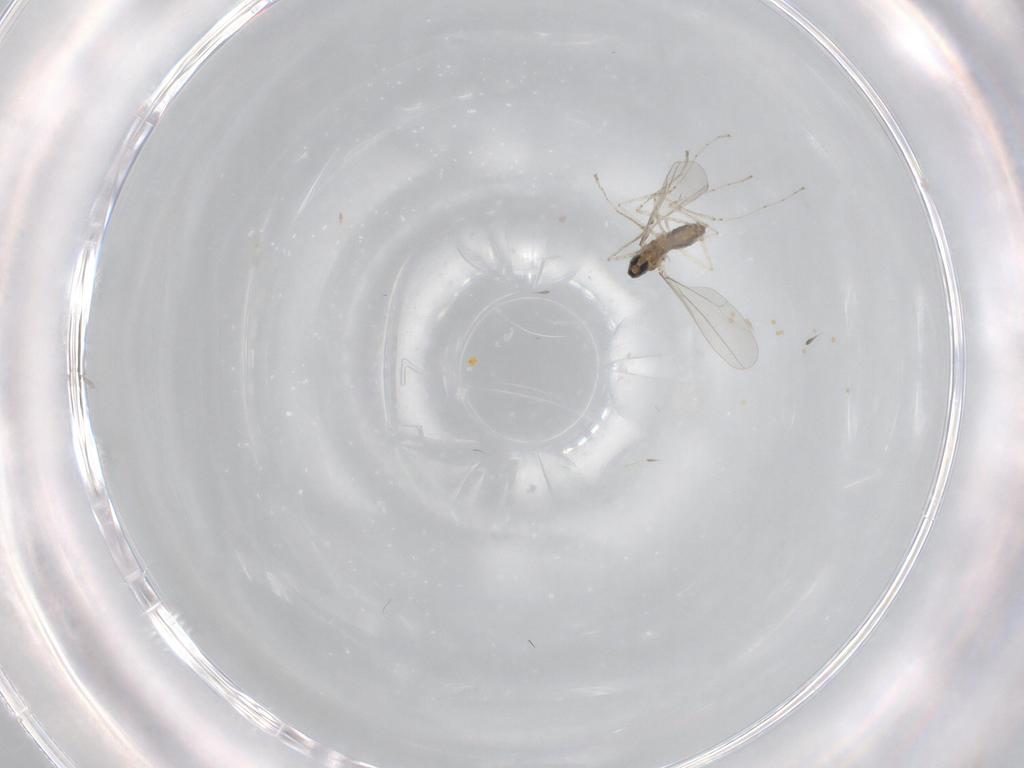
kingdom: Animalia
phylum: Arthropoda
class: Insecta
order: Diptera
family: Cecidomyiidae
